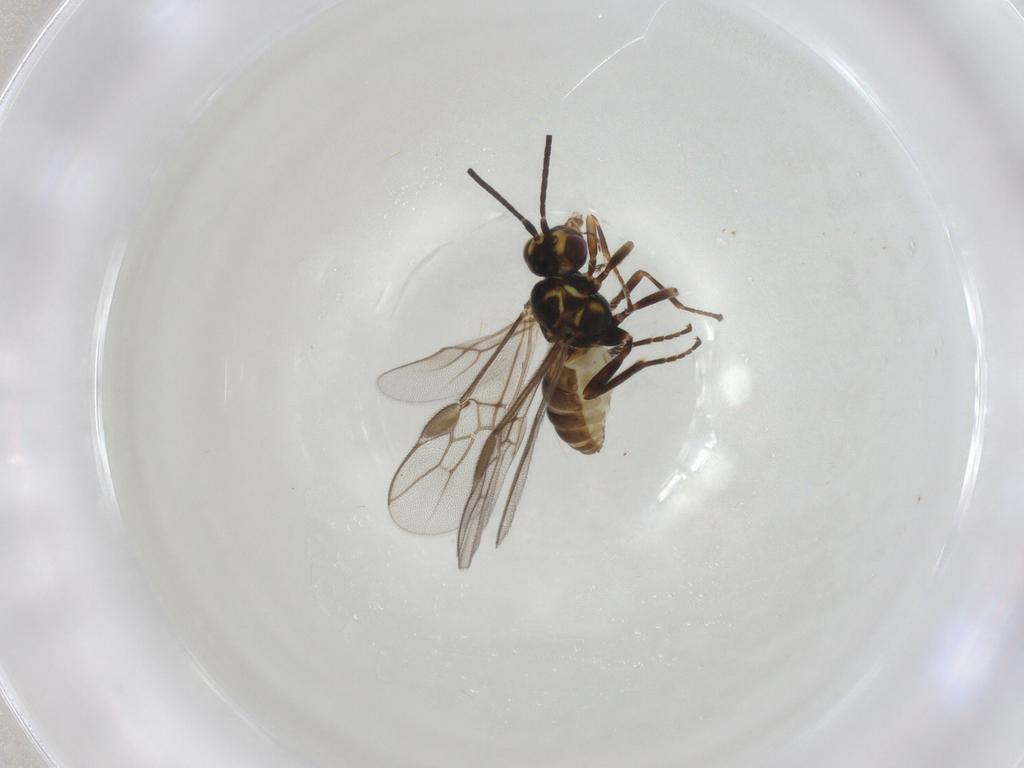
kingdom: Animalia
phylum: Arthropoda
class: Insecta
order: Hymenoptera
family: Braconidae
